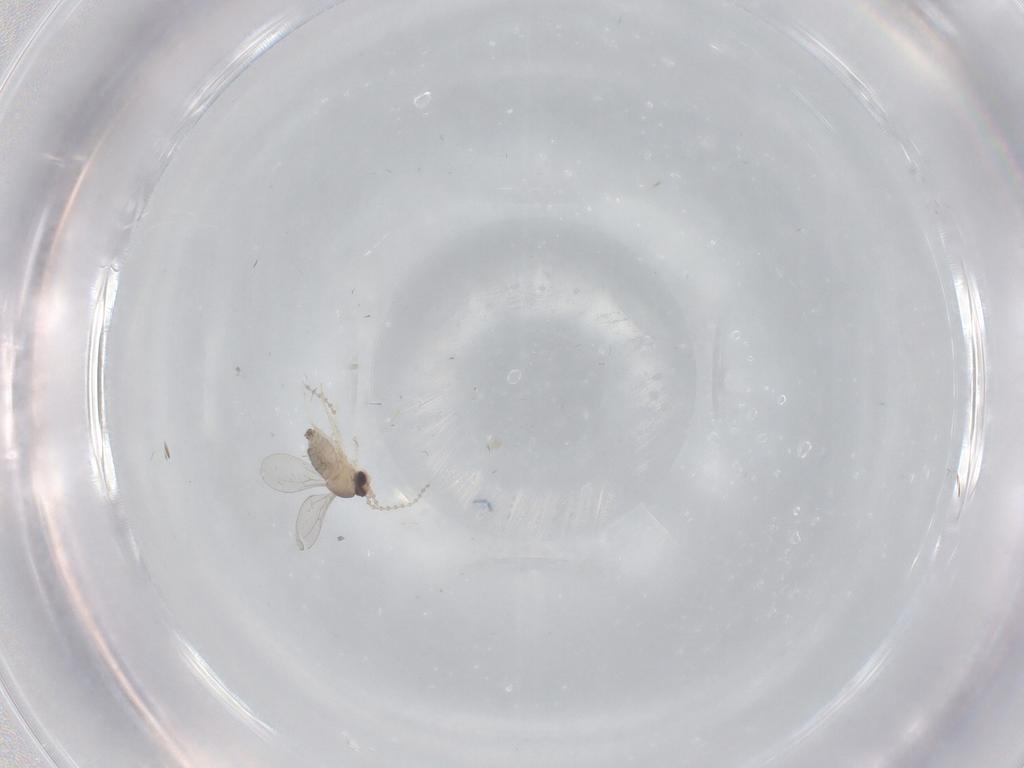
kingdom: Animalia
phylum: Arthropoda
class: Insecta
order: Diptera
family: Cecidomyiidae
